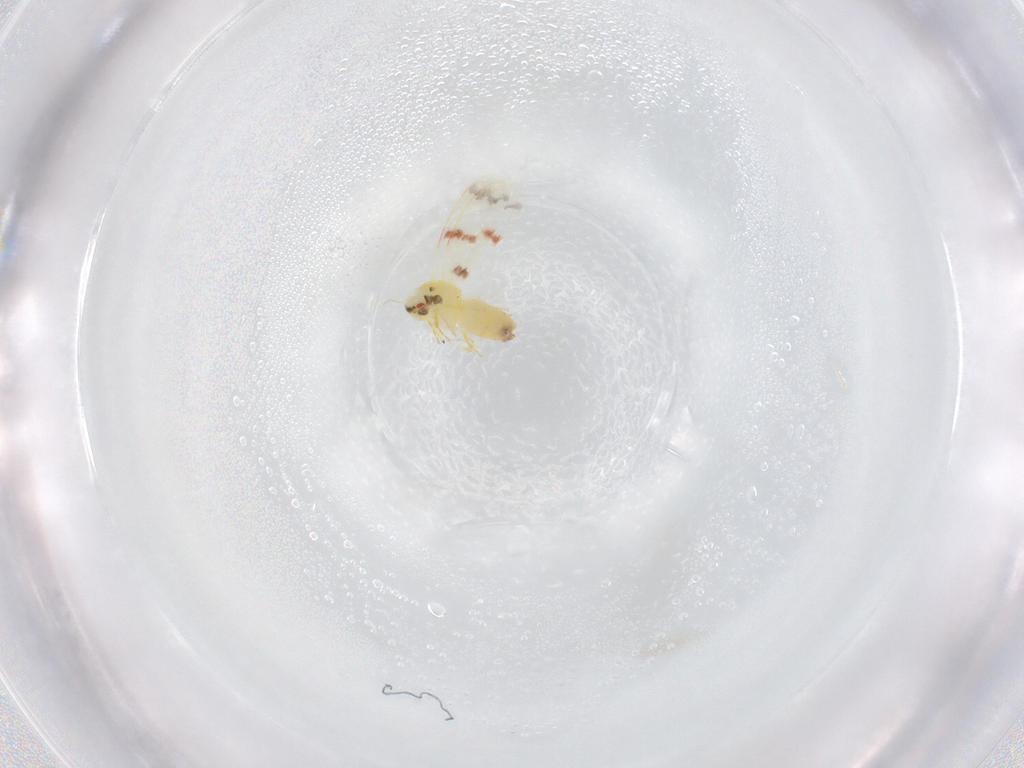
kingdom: Animalia
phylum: Arthropoda
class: Insecta
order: Hemiptera
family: Aleyrodidae
